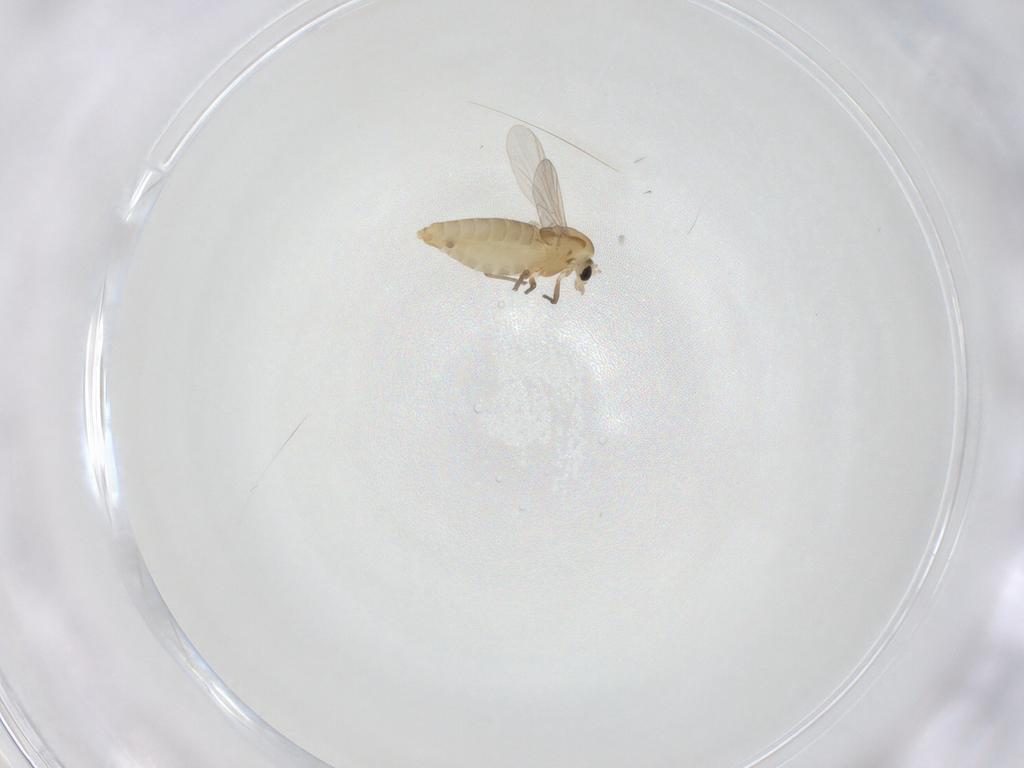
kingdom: Animalia
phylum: Arthropoda
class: Insecta
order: Diptera
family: Chironomidae
